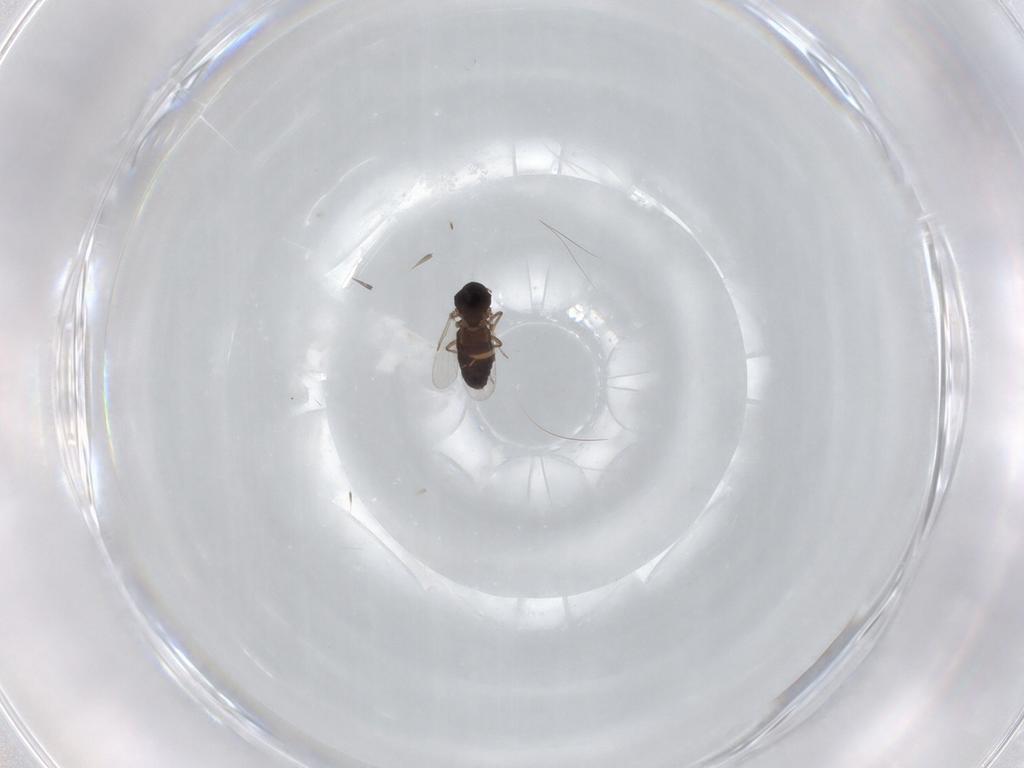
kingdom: Animalia
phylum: Arthropoda
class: Insecta
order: Diptera
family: Ceratopogonidae
